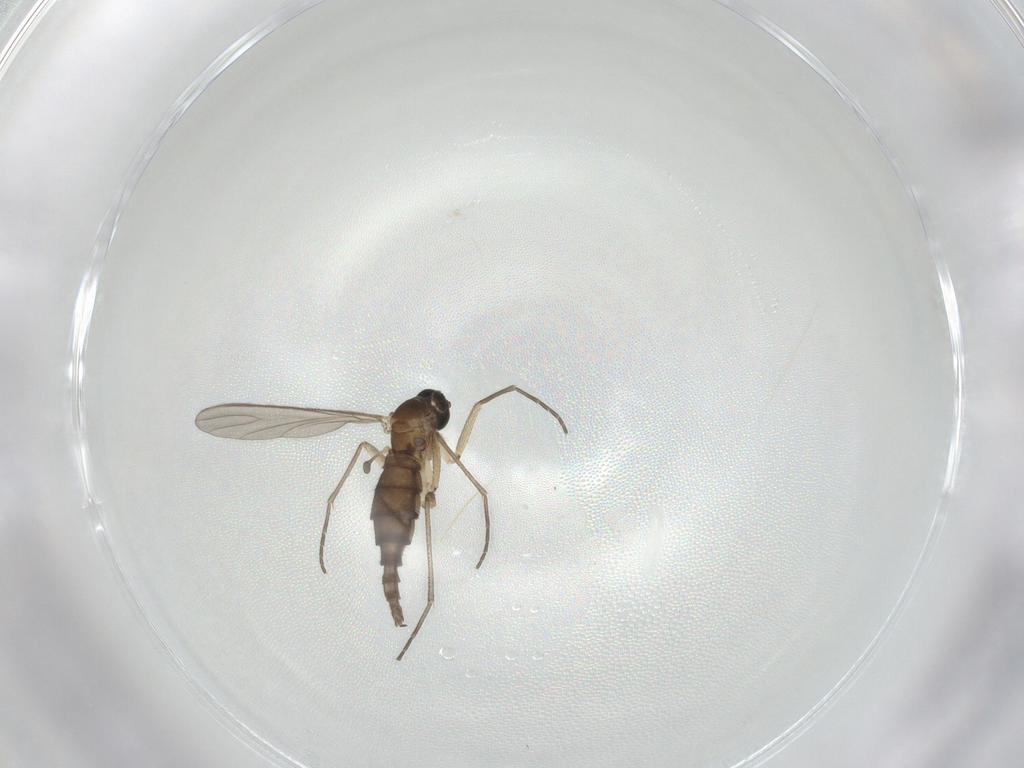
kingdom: Animalia
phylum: Arthropoda
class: Insecta
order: Diptera
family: Sciaridae
